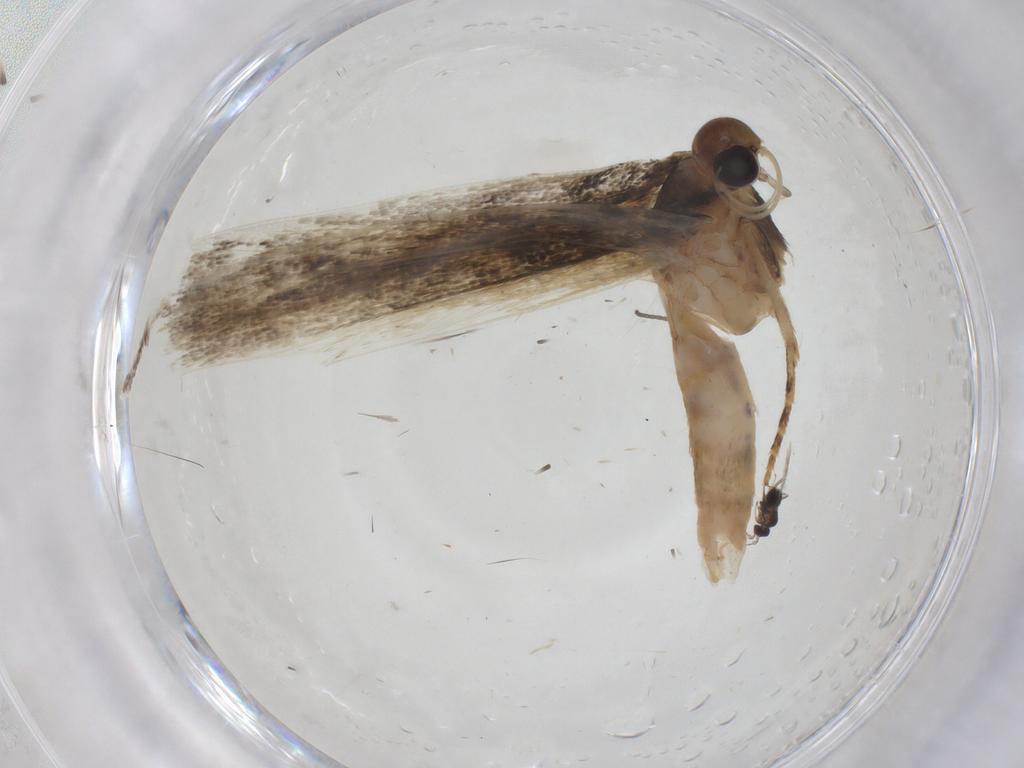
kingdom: Animalia
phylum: Arthropoda
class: Insecta
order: Lepidoptera
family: Gelechiidae
